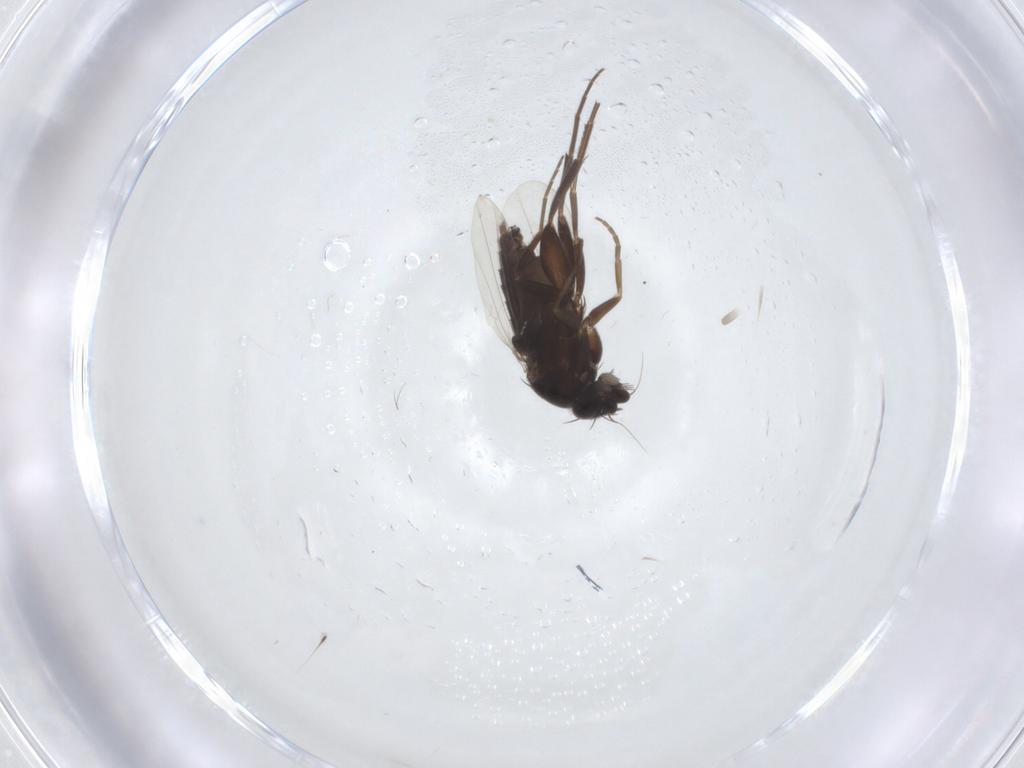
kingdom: Animalia
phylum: Arthropoda
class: Insecta
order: Diptera
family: Phoridae
